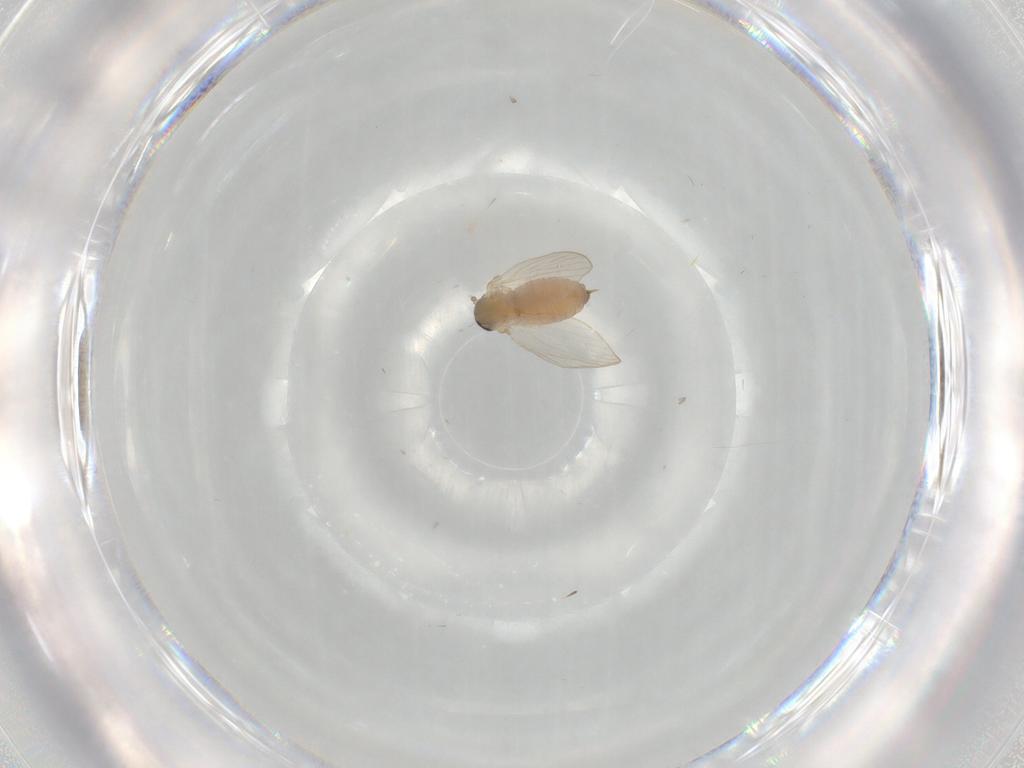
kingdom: Animalia
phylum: Arthropoda
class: Insecta
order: Diptera
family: Psychodidae
